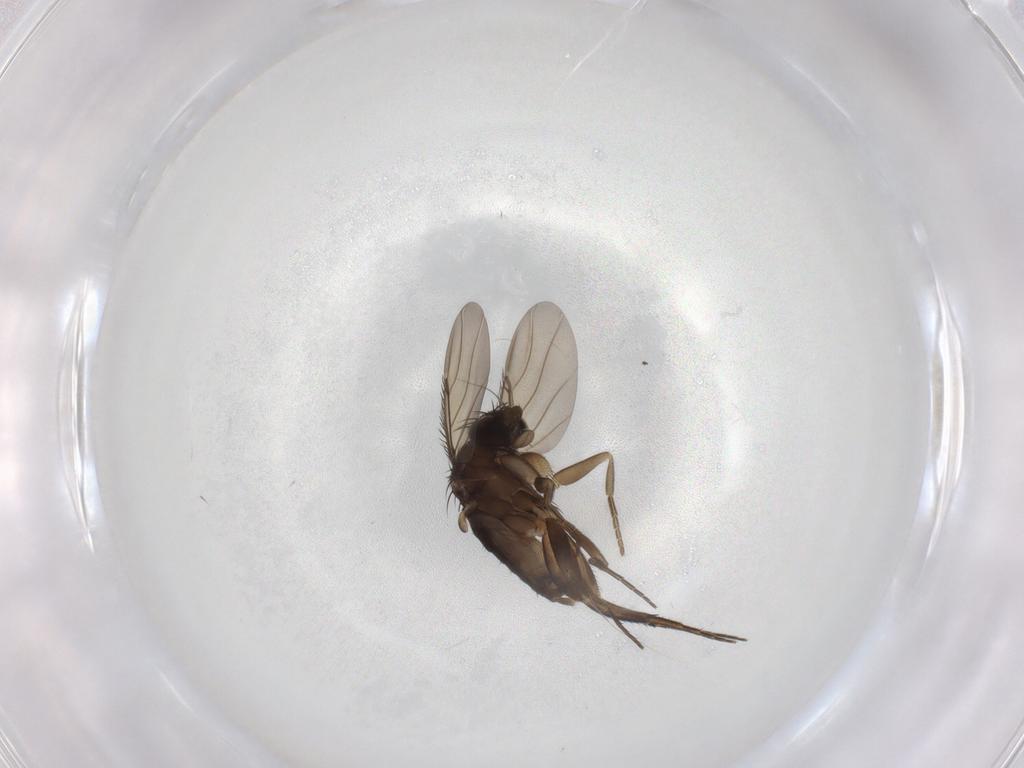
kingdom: Animalia
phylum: Arthropoda
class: Insecta
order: Diptera
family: Phoridae
